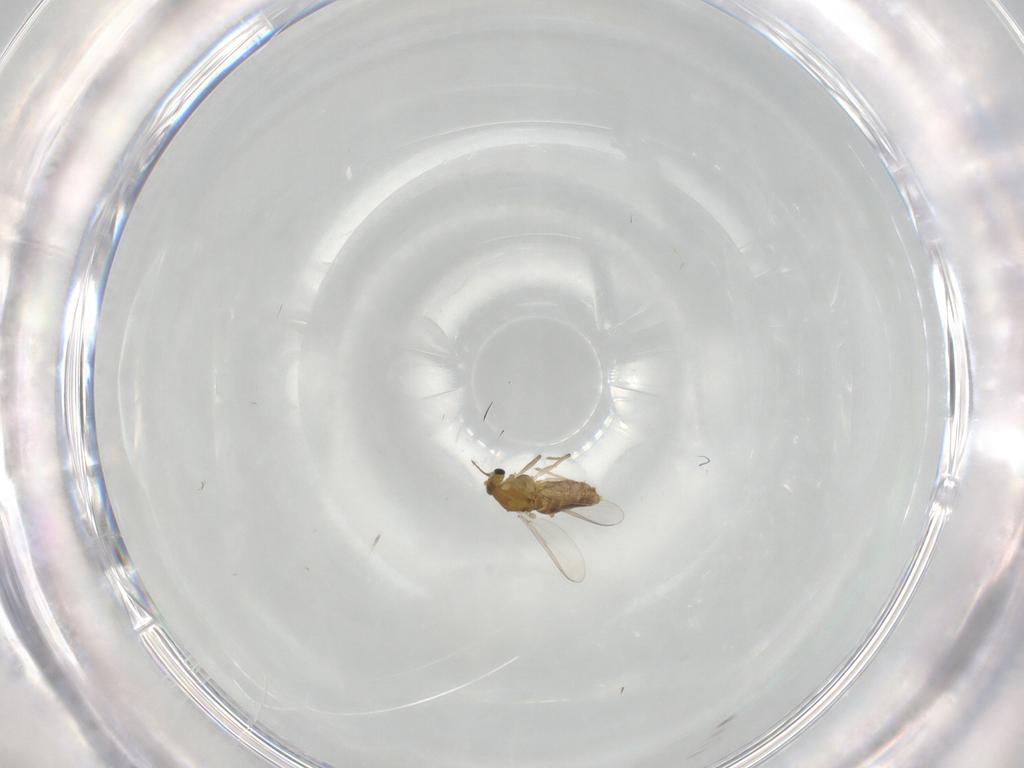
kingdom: Animalia
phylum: Arthropoda
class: Insecta
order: Diptera
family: Chironomidae
